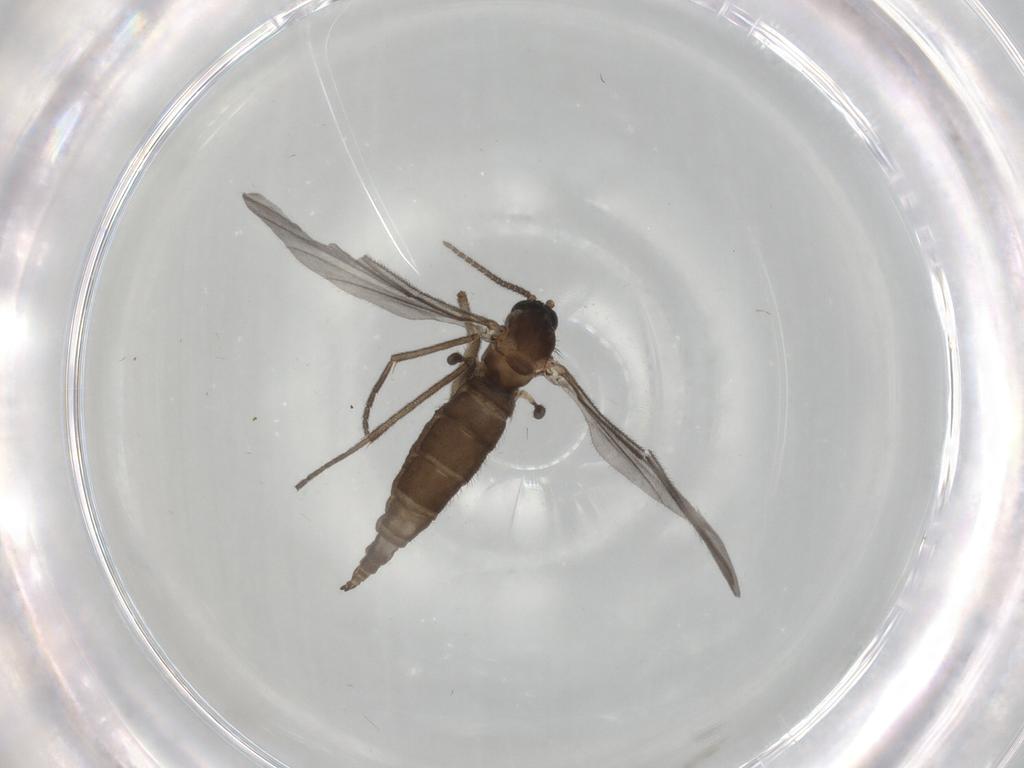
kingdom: Animalia
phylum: Arthropoda
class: Insecta
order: Diptera
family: Sciaridae
